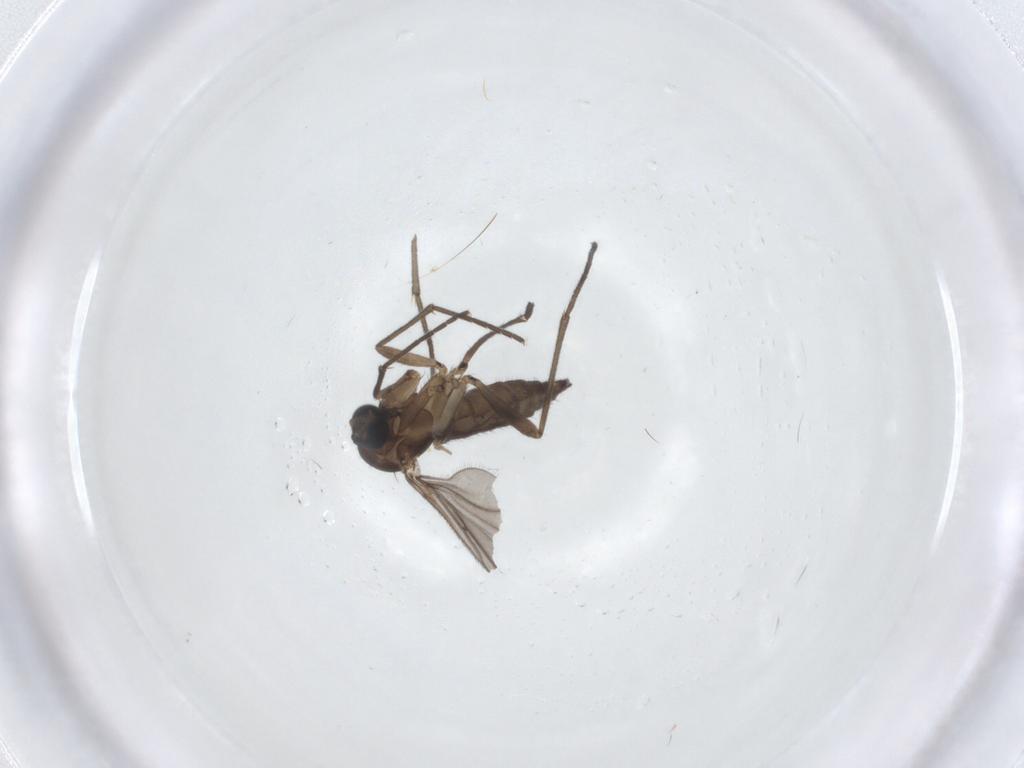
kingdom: Animalia
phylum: Arthropoda
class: Insecta
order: Diptera
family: Sciaridae
